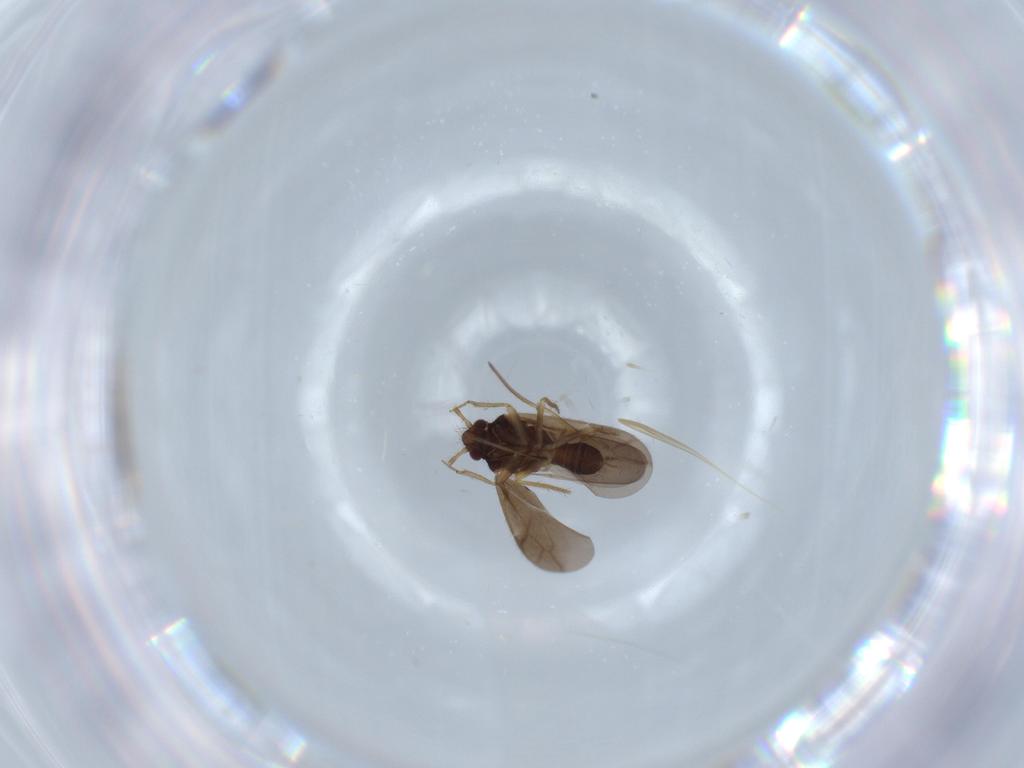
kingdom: Animalia
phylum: Arthropoda
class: Insecta
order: Hemiptera
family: Ceratocombidae
